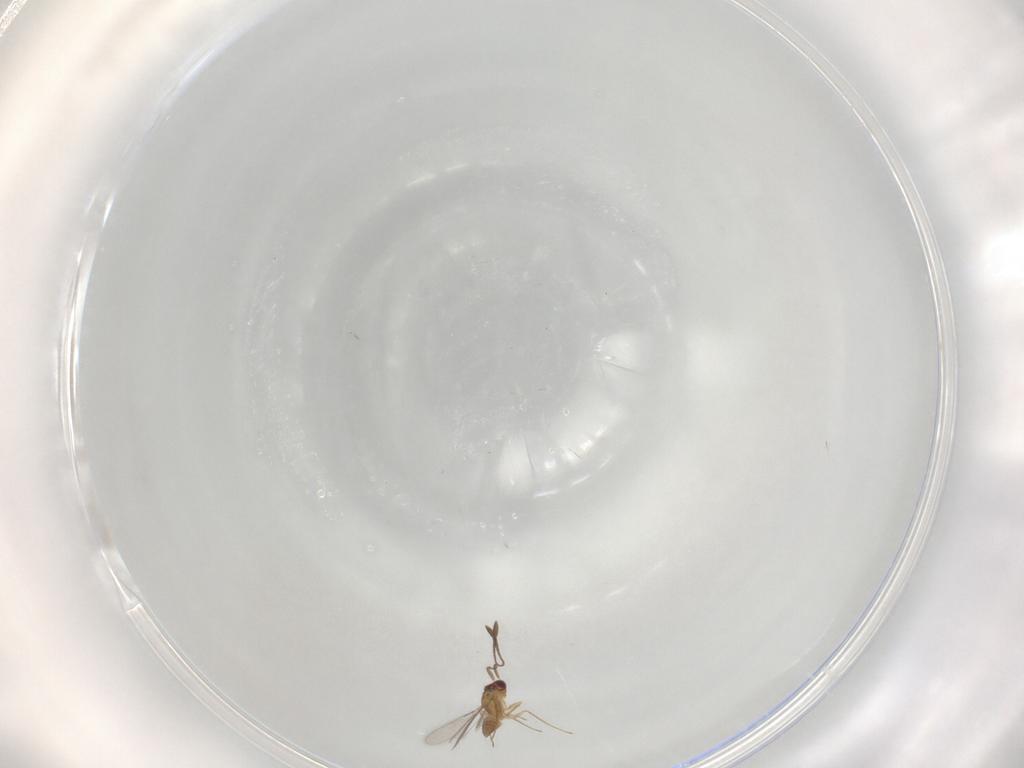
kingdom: Animalia
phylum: Arthropoda
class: Insecta
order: Hymenoptera
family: Mymaridae
